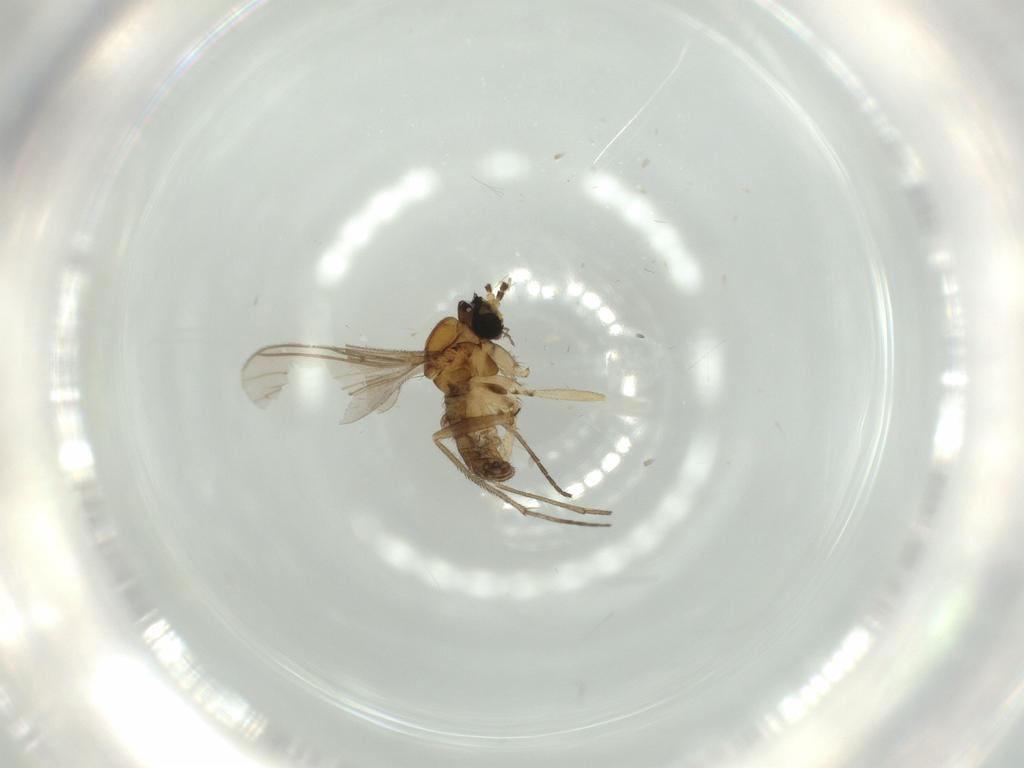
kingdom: Animalia
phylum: Arthropoda
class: Insecta
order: Diptera
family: Sciaridae
